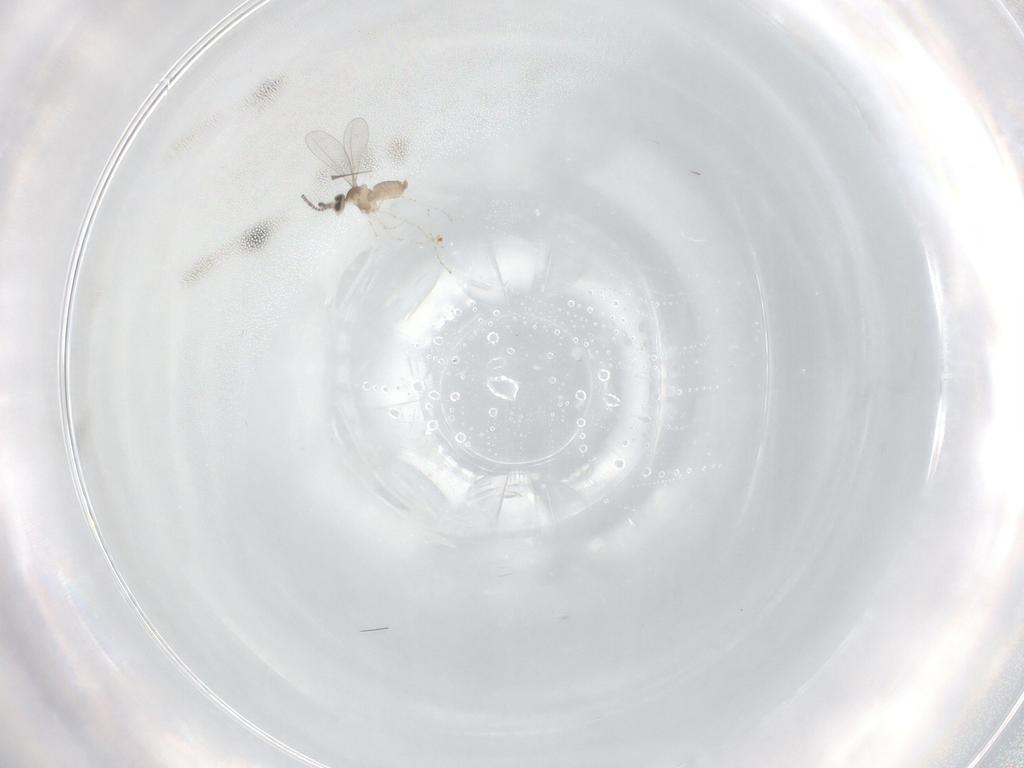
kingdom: Animalia
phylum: Arthropoda
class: Insecta
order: Diptera
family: Cecidomyiidae
